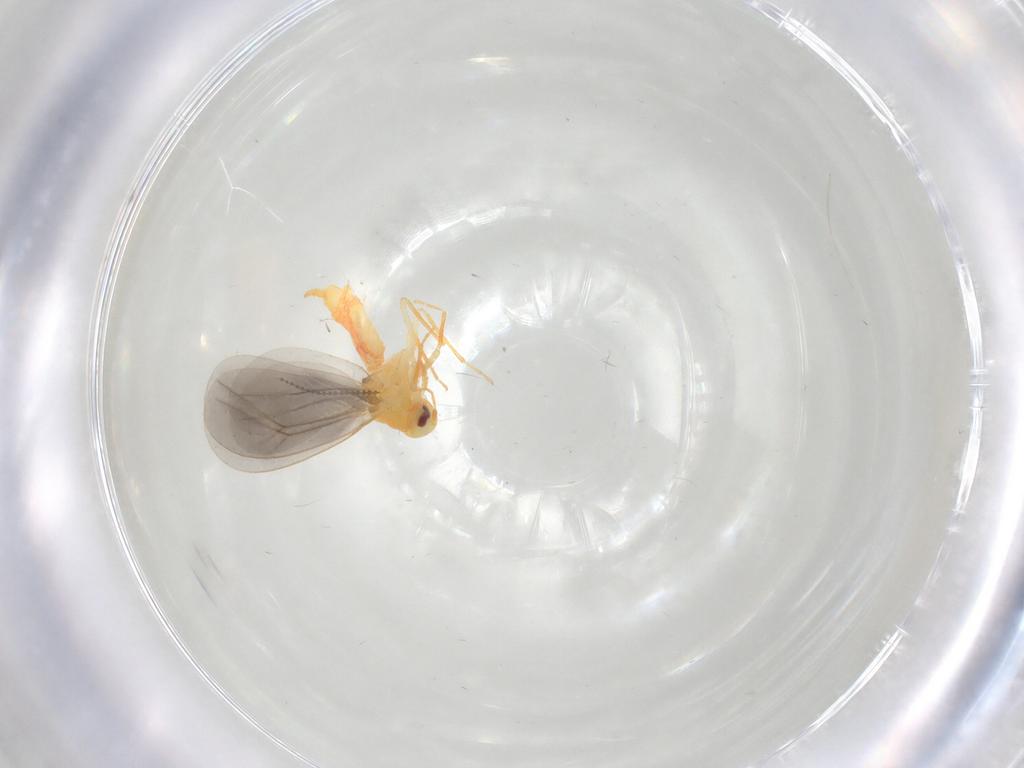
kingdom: Animalia
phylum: Arthropoda
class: Insecta
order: Hemiptera
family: Aleyrodidae
